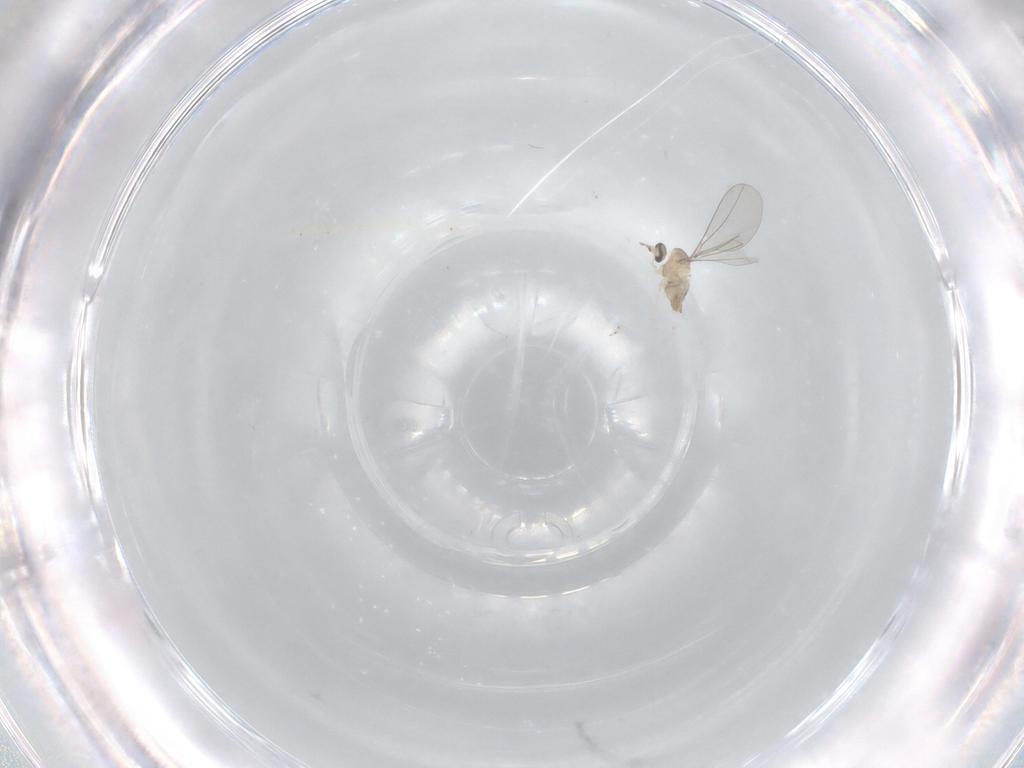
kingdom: Animalia
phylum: Arthropoda
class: Insecta
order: Diptera
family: Cecidomyiidae
